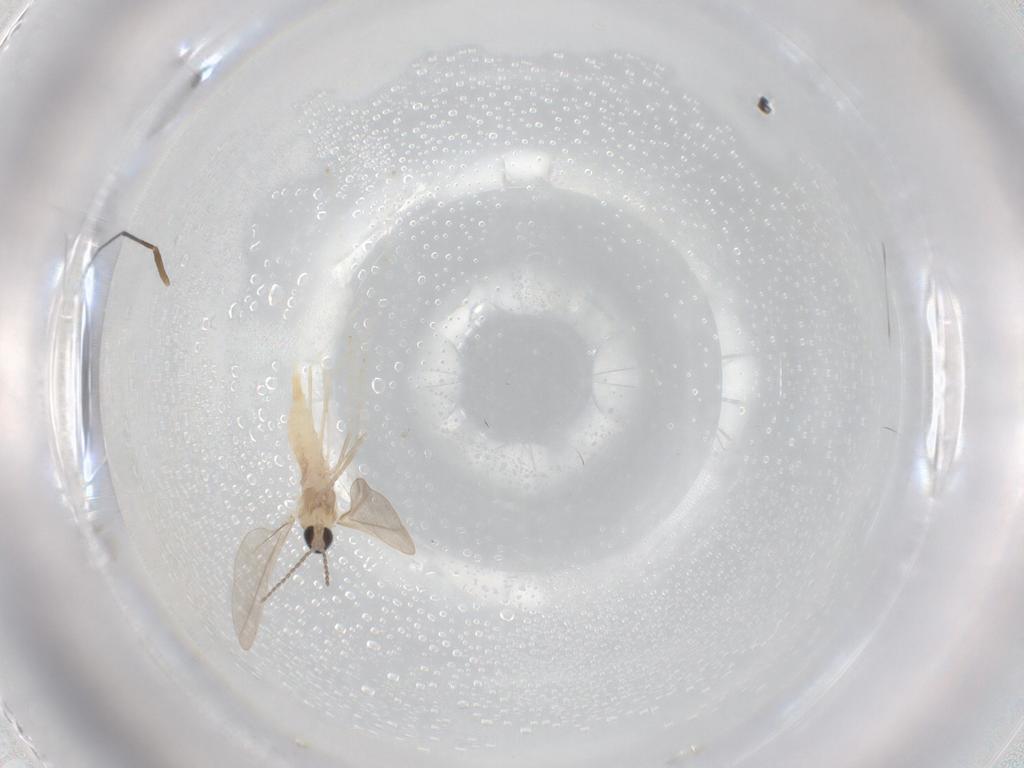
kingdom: Animalia
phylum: Arthropoda
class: Insecta
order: Diptera
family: Cecidomyiidae
